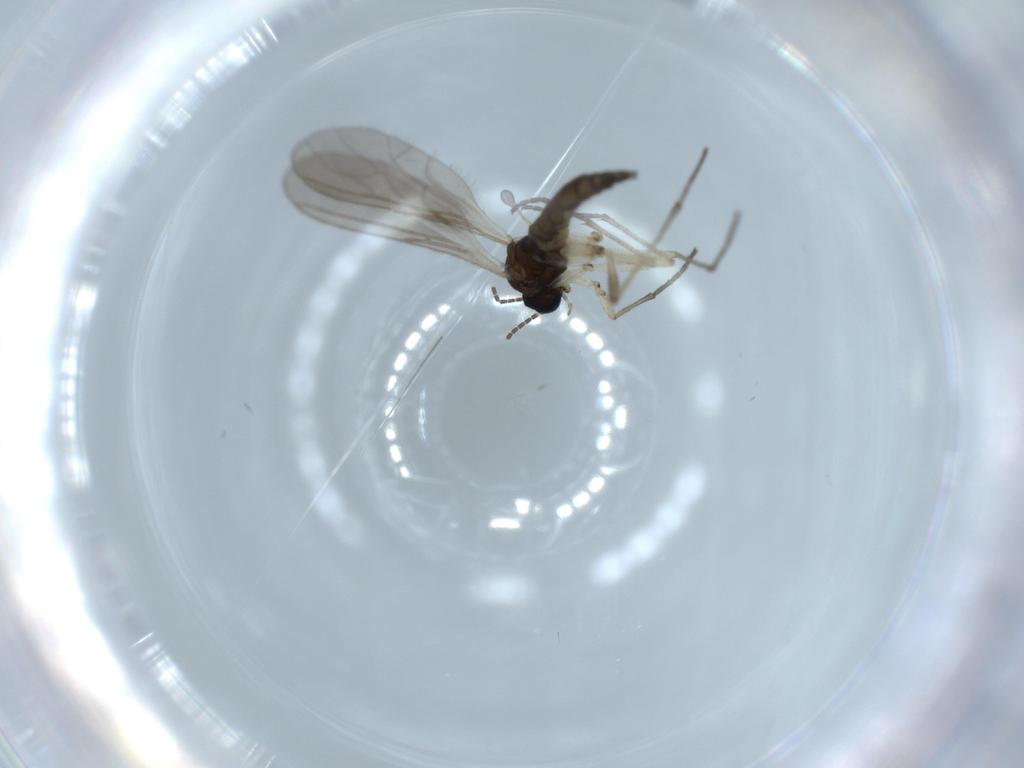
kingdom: Animalia
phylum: Arthropoda
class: Insecta
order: Diptera
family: Sciaridae
